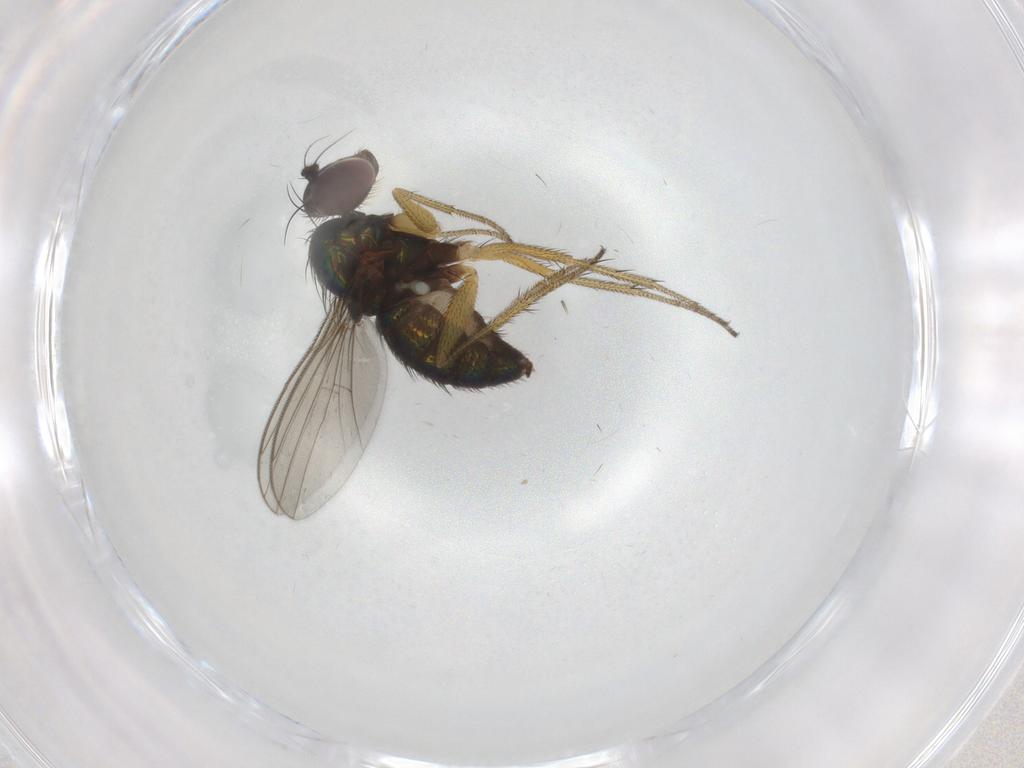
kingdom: Animalia
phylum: Arthropoda
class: Insecta
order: Diptera
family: Dolichopodidae
